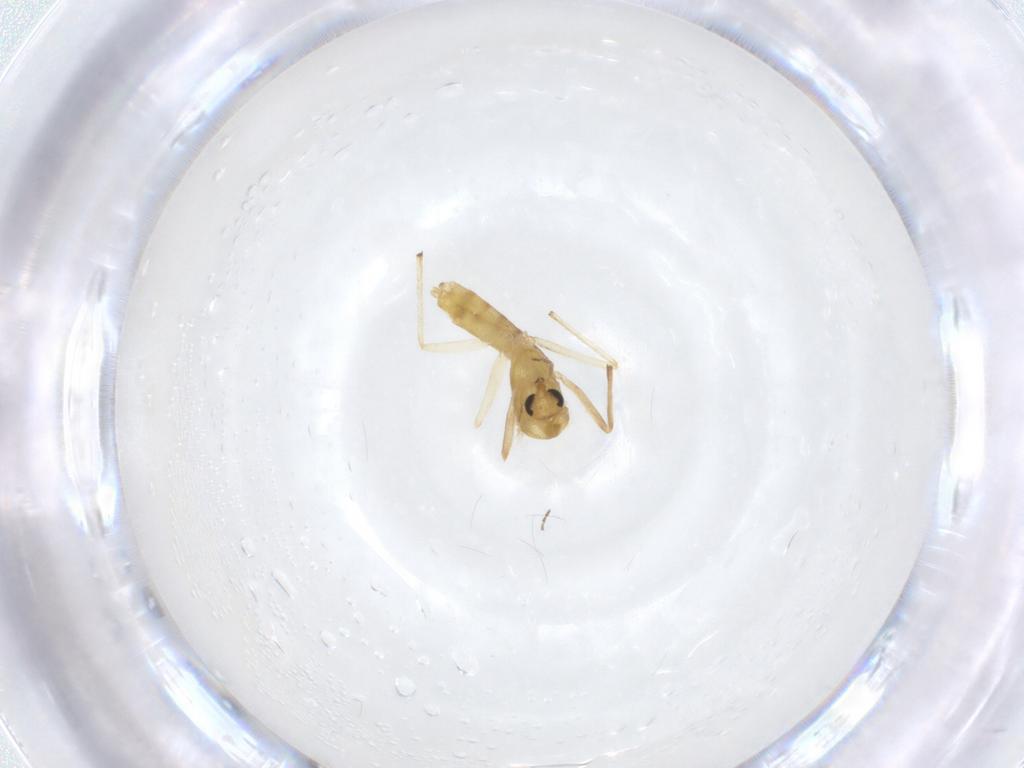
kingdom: Animalia
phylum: Arthropoda
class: Insecta
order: Diptera
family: Chironomidae
